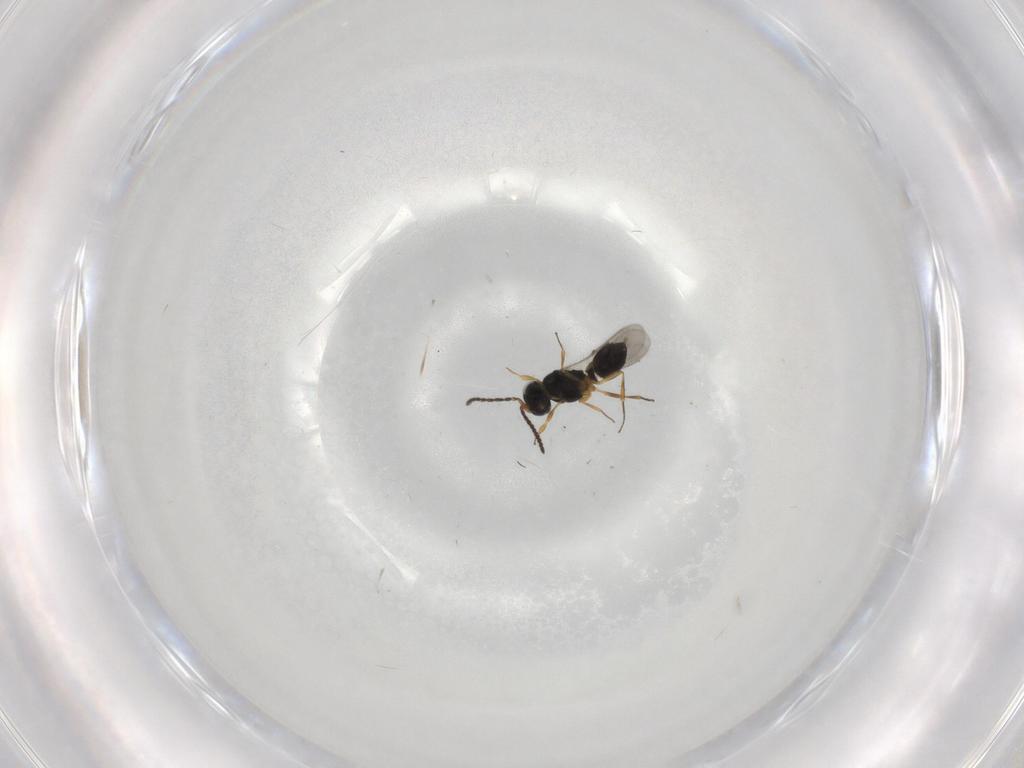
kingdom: Animalia
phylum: Arthropoda
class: Insecta
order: Hymenoptera
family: Scelionidae
